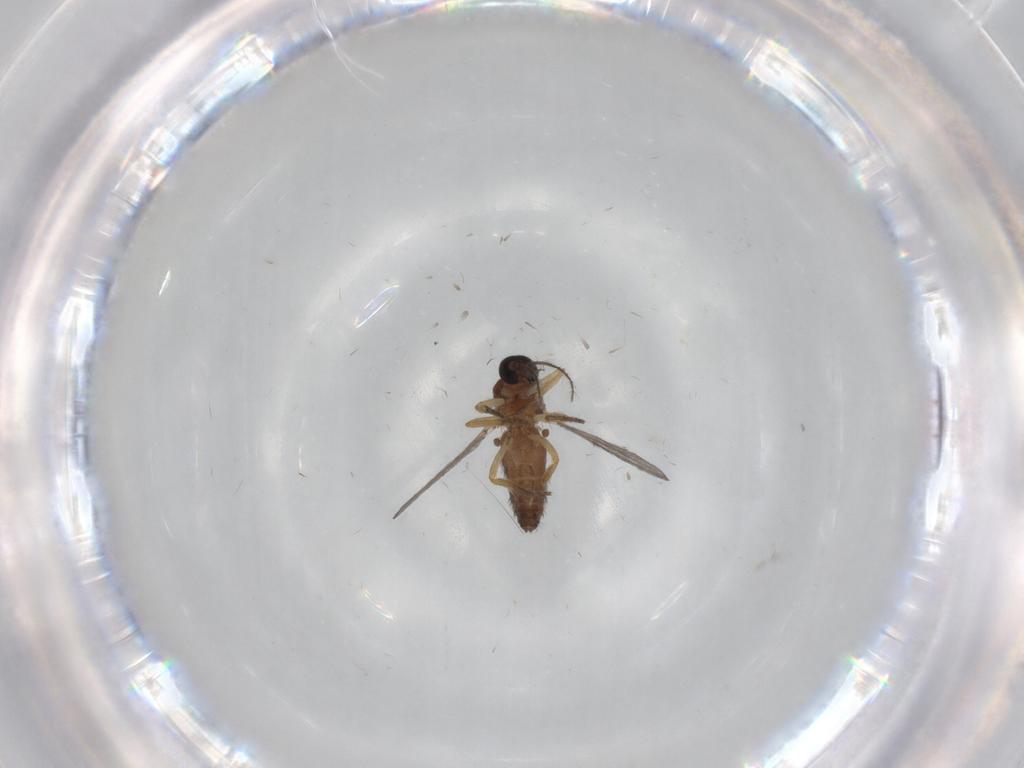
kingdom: Animalia
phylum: Arthropoda
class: Insecta
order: Diptera
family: Ceratopogonidae
